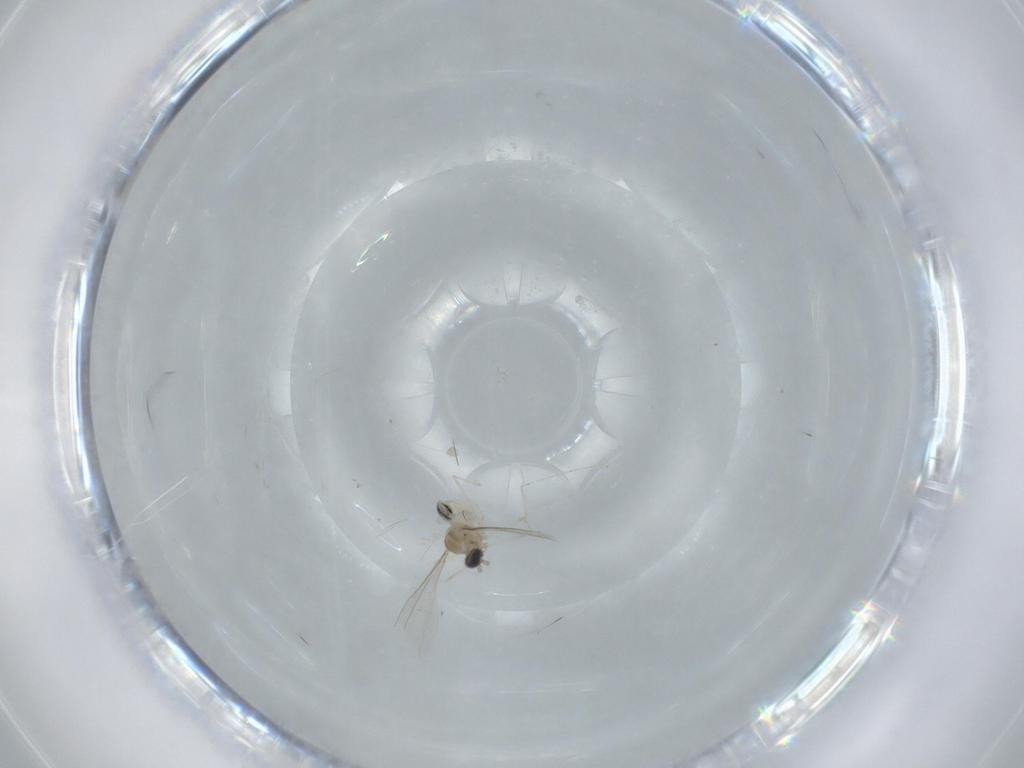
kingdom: Animalia
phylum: Arthropoda
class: Insecta
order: Diptera
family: Cecidomyiidae
